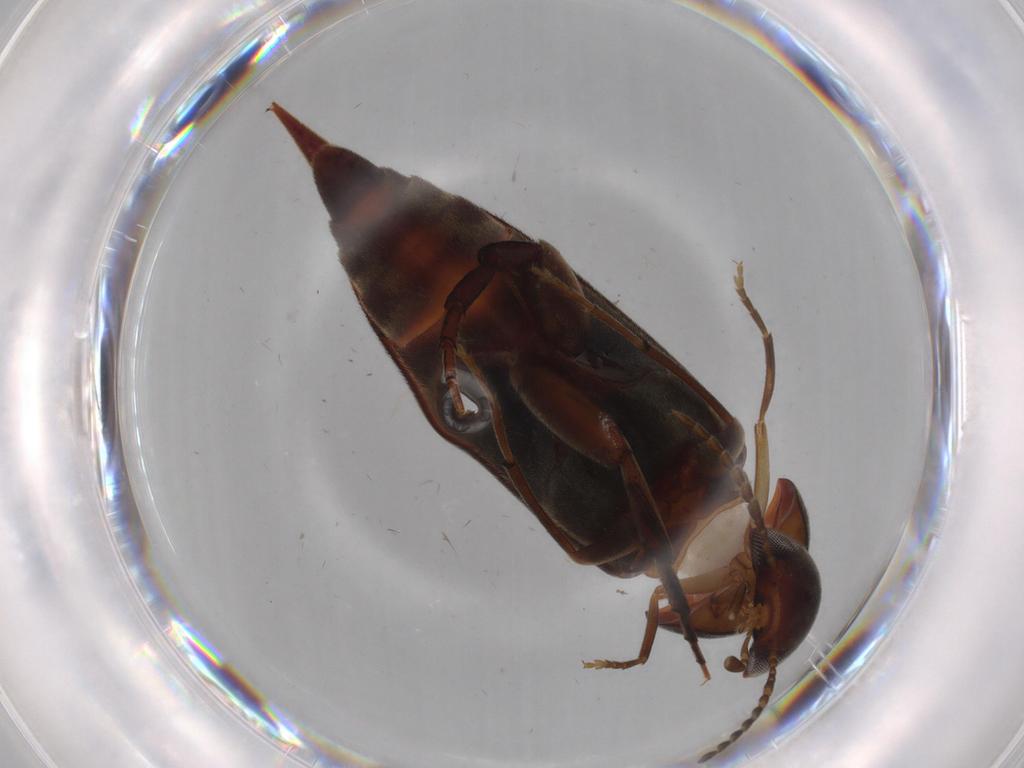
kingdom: Animalia
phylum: Arthropoda
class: Insecta
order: Coleoptera
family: Mordellidae
